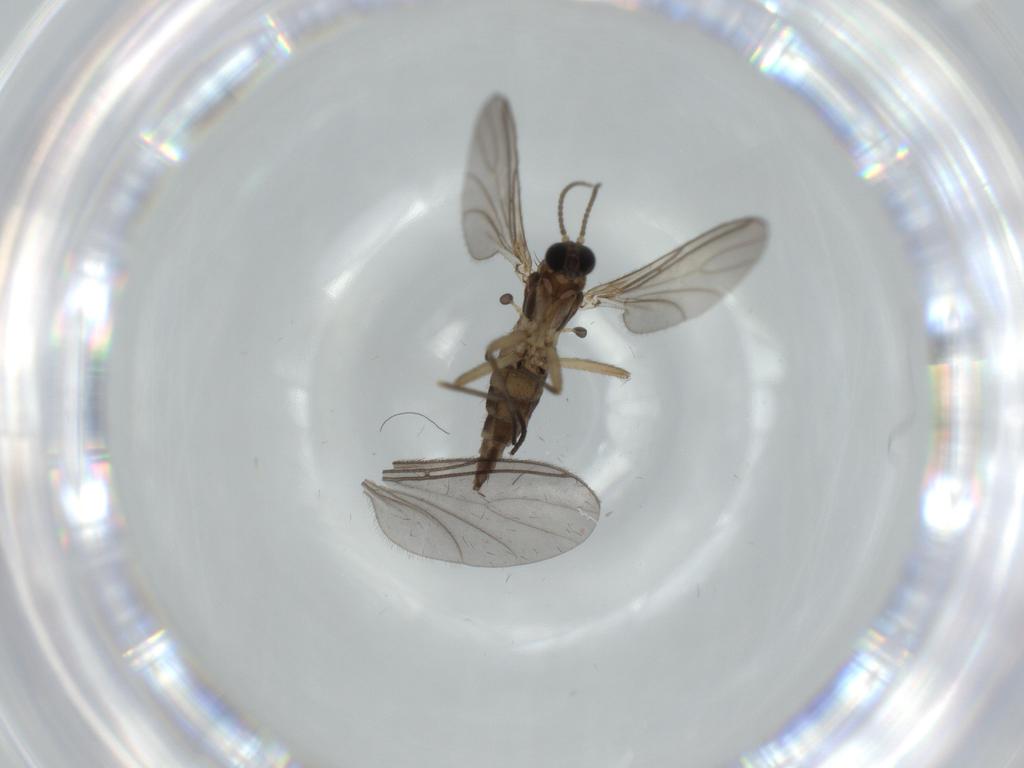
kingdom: Animalia
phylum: Arthropoda
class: Insecta
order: Diptera
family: Sciaridae
